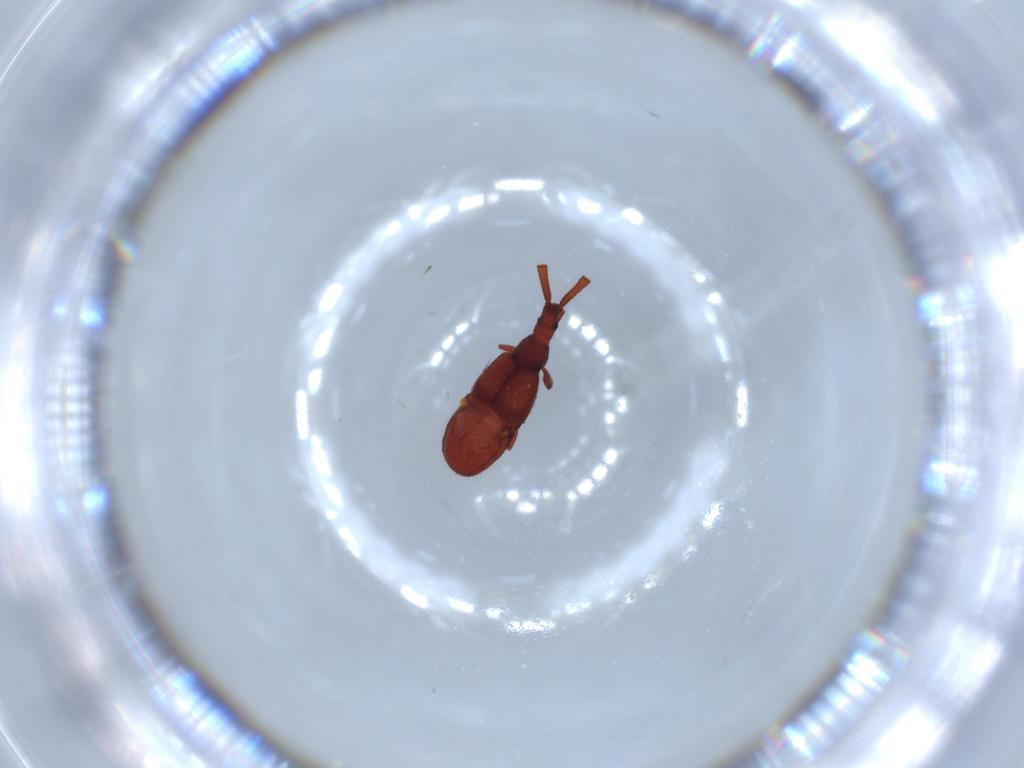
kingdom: Animalia
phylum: Arthropoda
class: Insecta
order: Coleoptera
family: Staphylinidae
